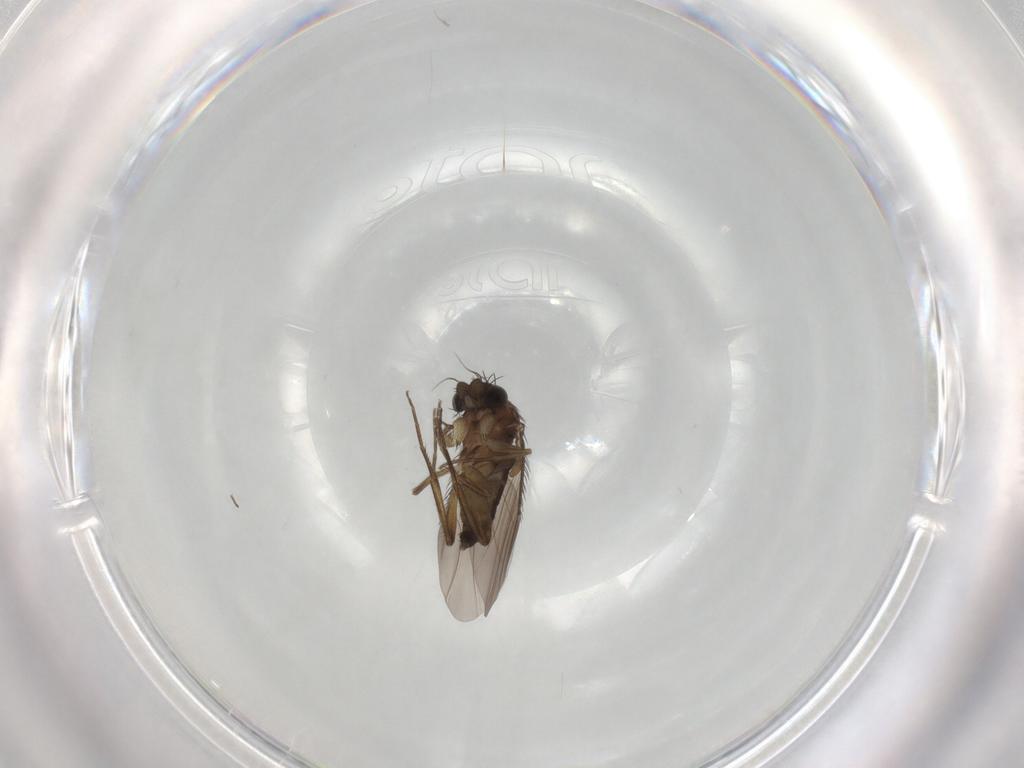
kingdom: Animalia
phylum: Arthropoda
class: Insecta
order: Diptera
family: Phoridae
